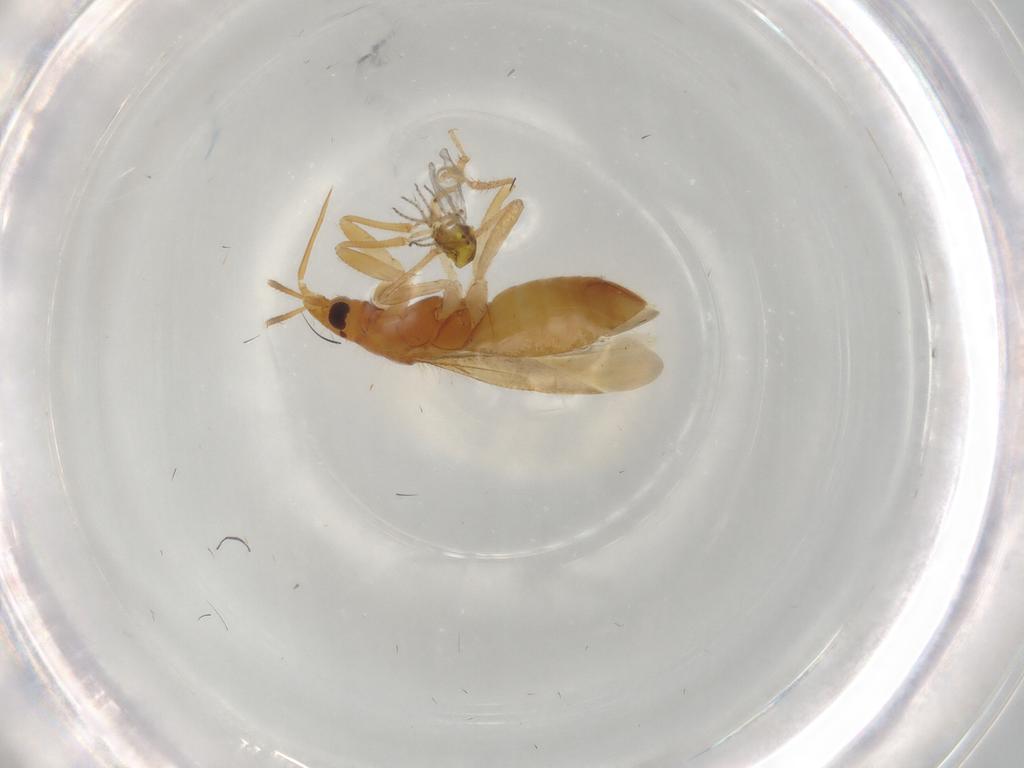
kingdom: Animalia
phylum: Arthropoda
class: Insecta
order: Hemiptera
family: Lasiochilidae
